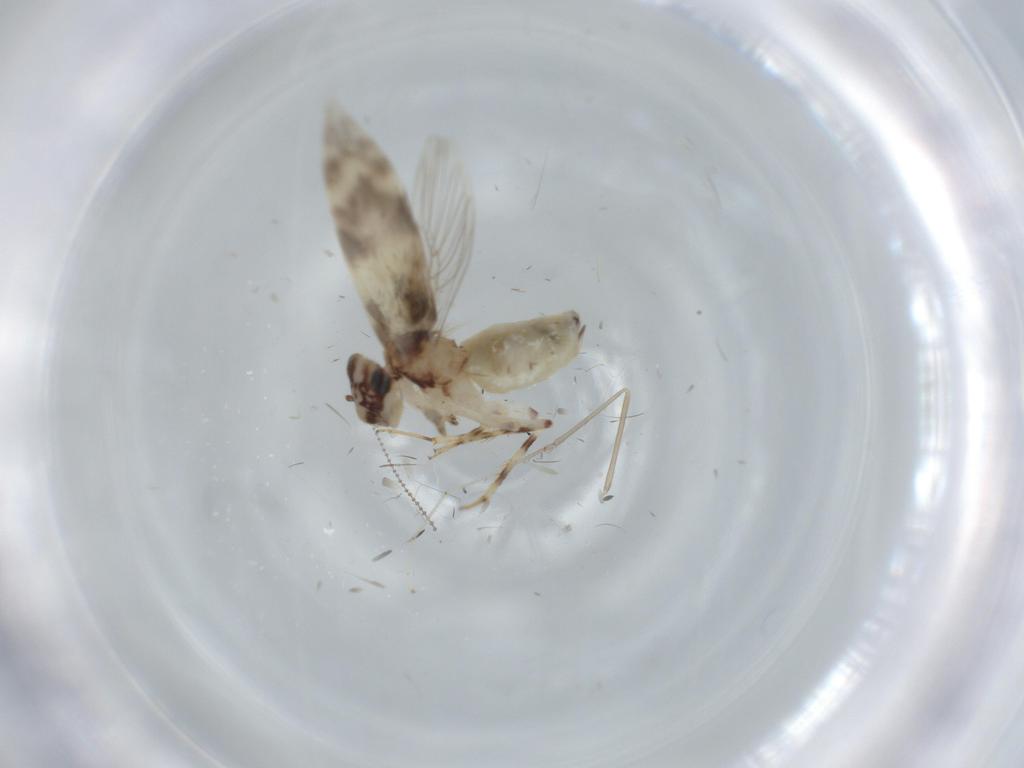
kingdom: Animalia
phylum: Arthropoda
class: Insecta
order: Psocodea
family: Lepidopsocidae
